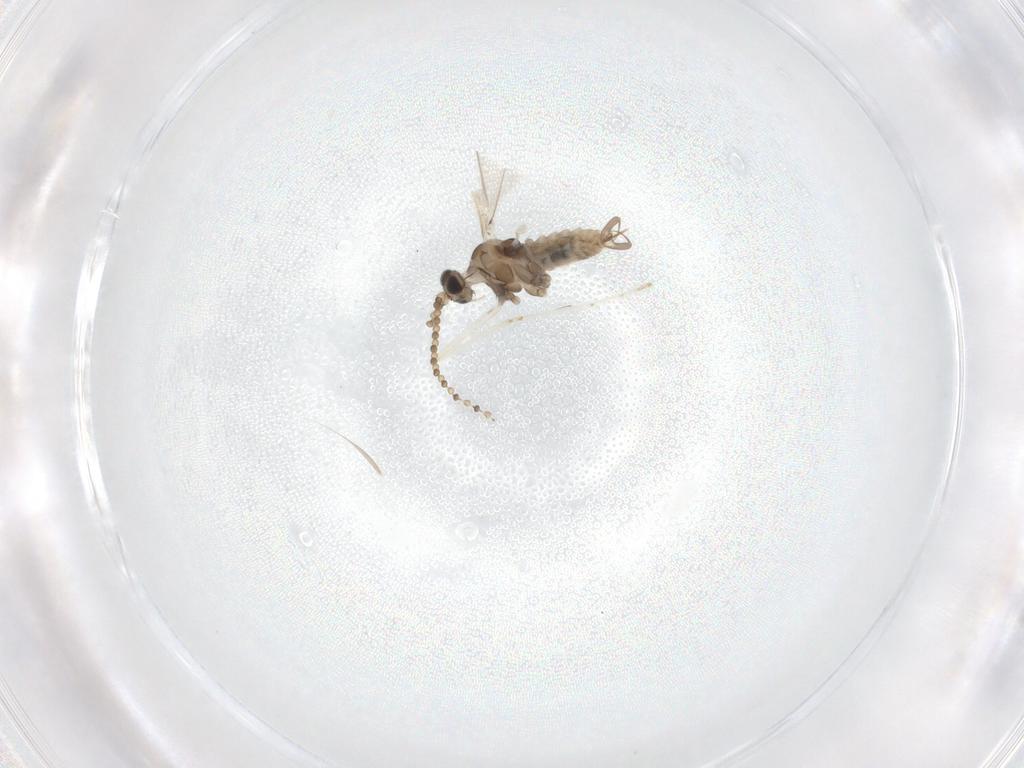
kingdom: Animalia
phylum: Arthropoda
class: Insecta
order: Diptera
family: Cecidomyiidae
